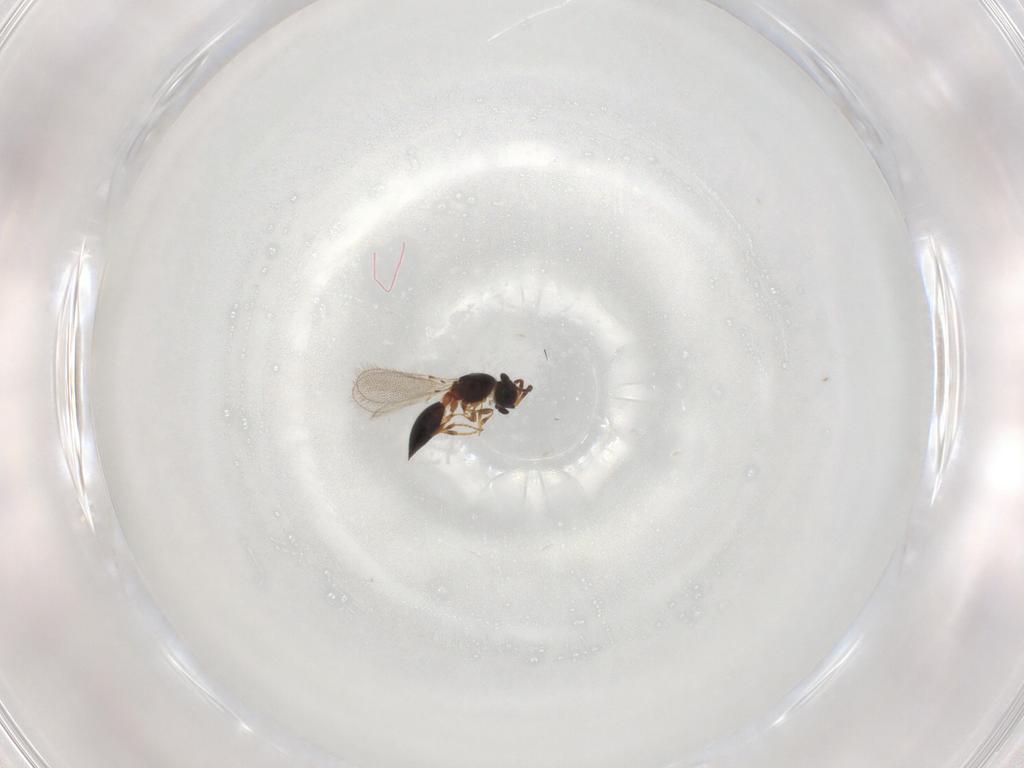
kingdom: Animalia
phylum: Arthropoda
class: Insecta
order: Hymenoptera
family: Diapriidae
